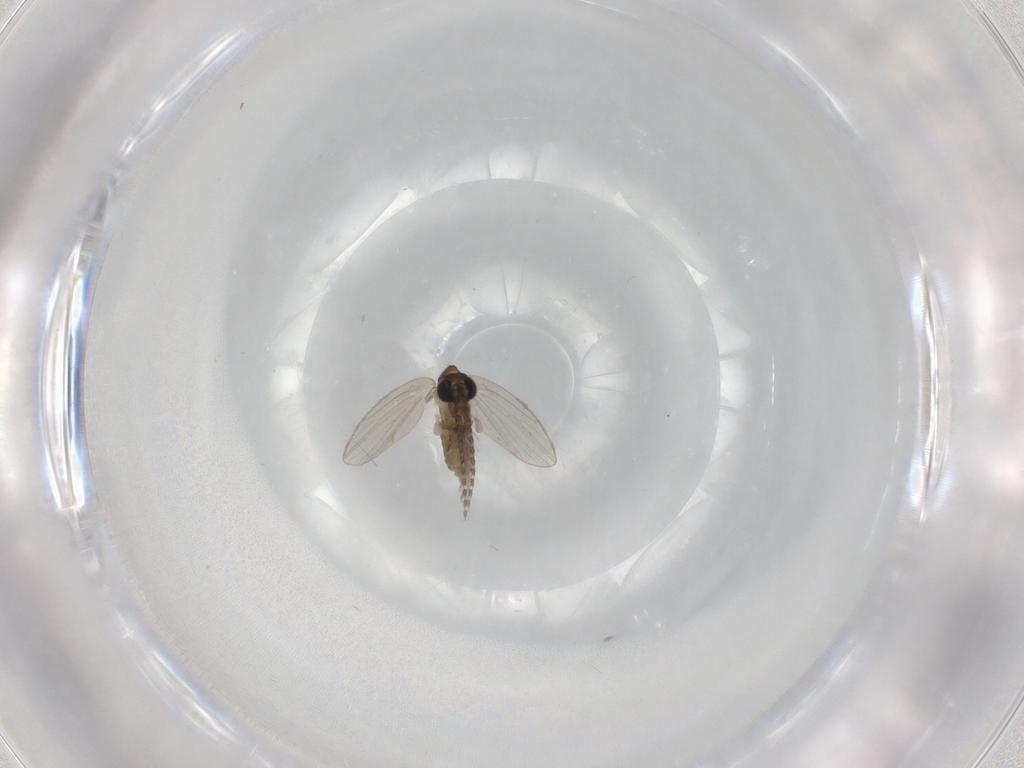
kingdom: Animalia
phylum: Arthropoda
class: Insecta
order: Diptera
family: Psychodidae
